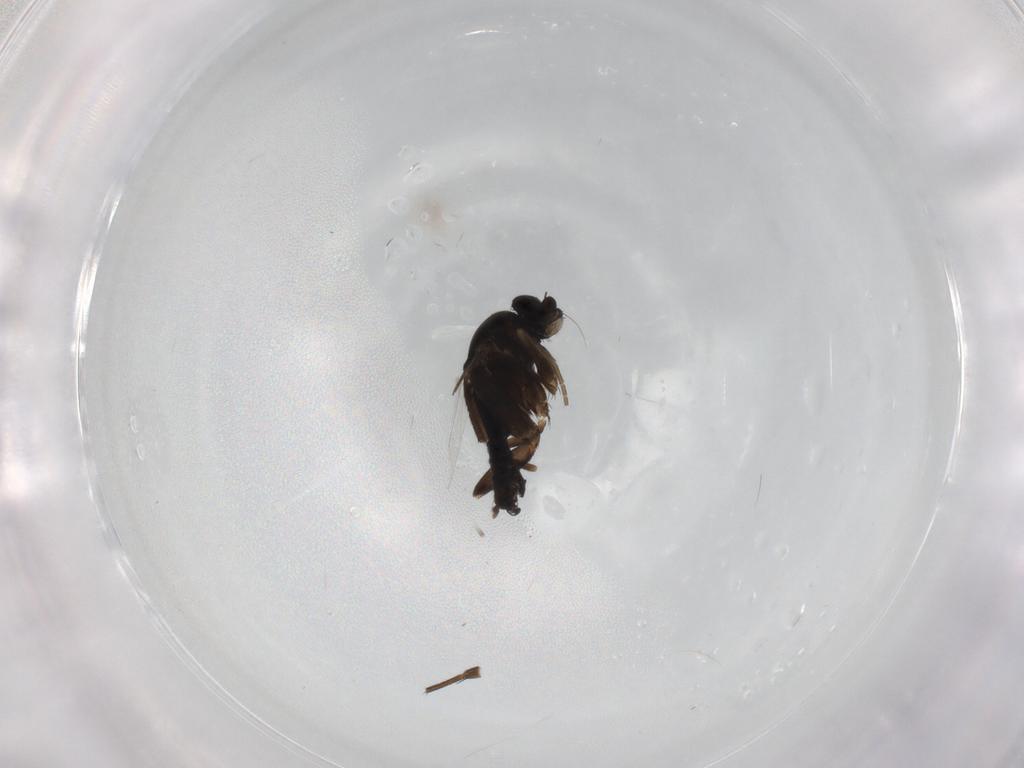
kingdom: Animalia
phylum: Arthropoda
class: Insecta
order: Diptera
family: Phoridae
